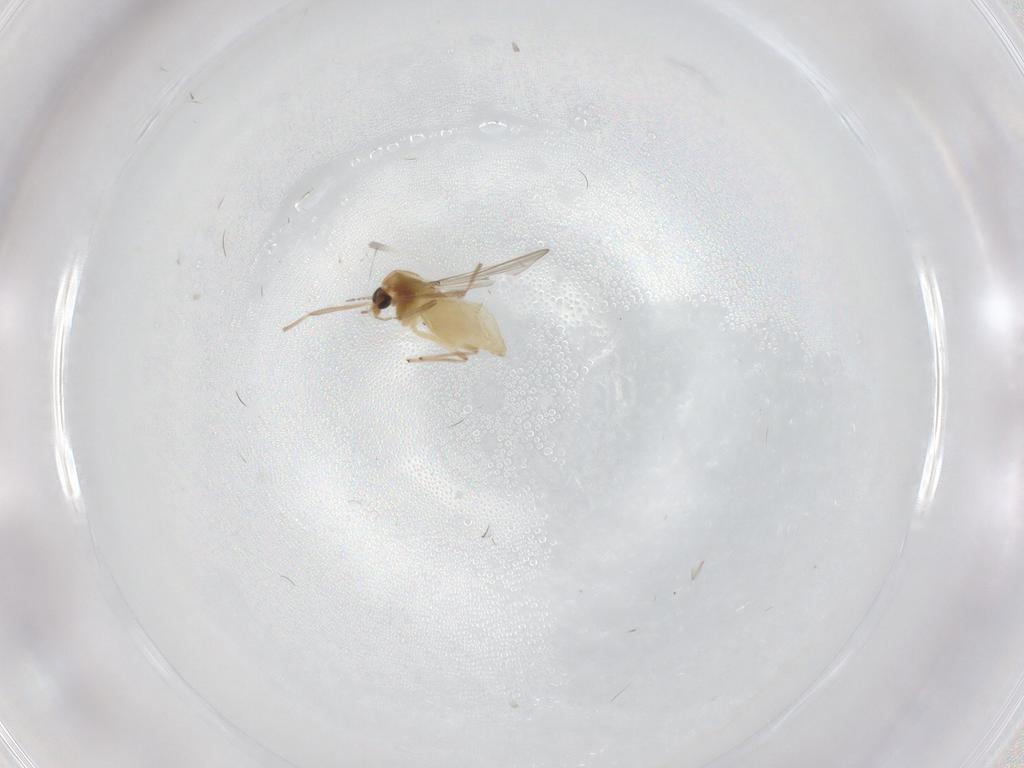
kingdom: Animalia
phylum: Arthropoda
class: Insecta
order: Diptera
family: Chironomidae
